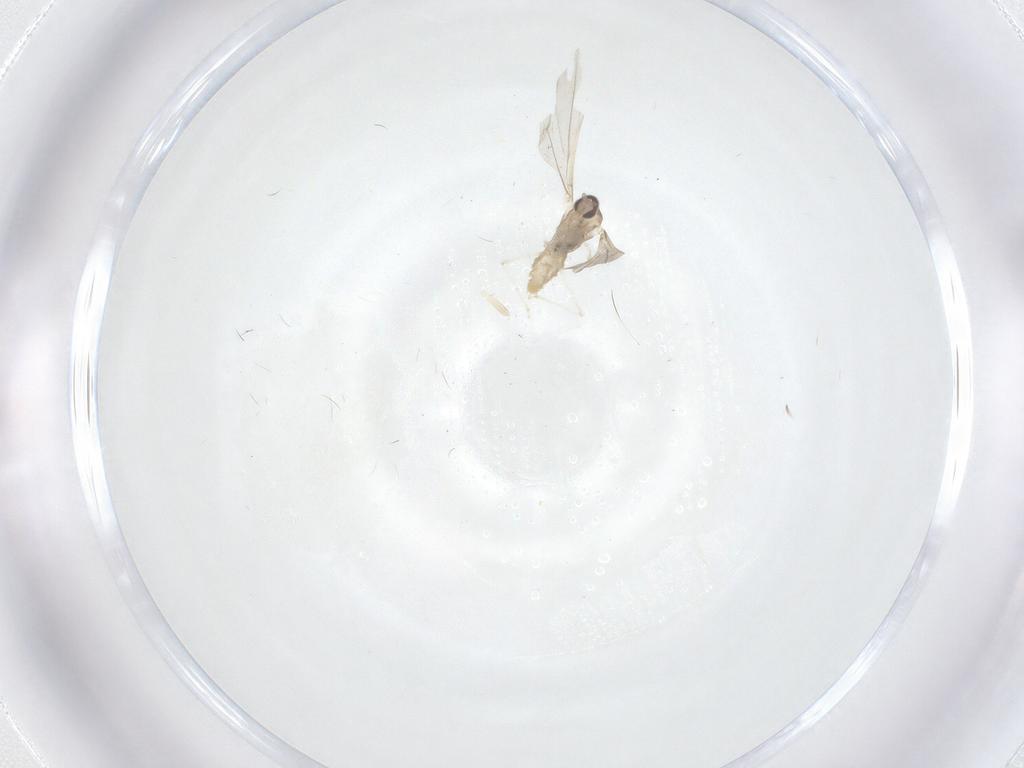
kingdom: Animalia
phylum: Arthropoda
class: Insecta
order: Diptera
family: Cecidomyiidae
